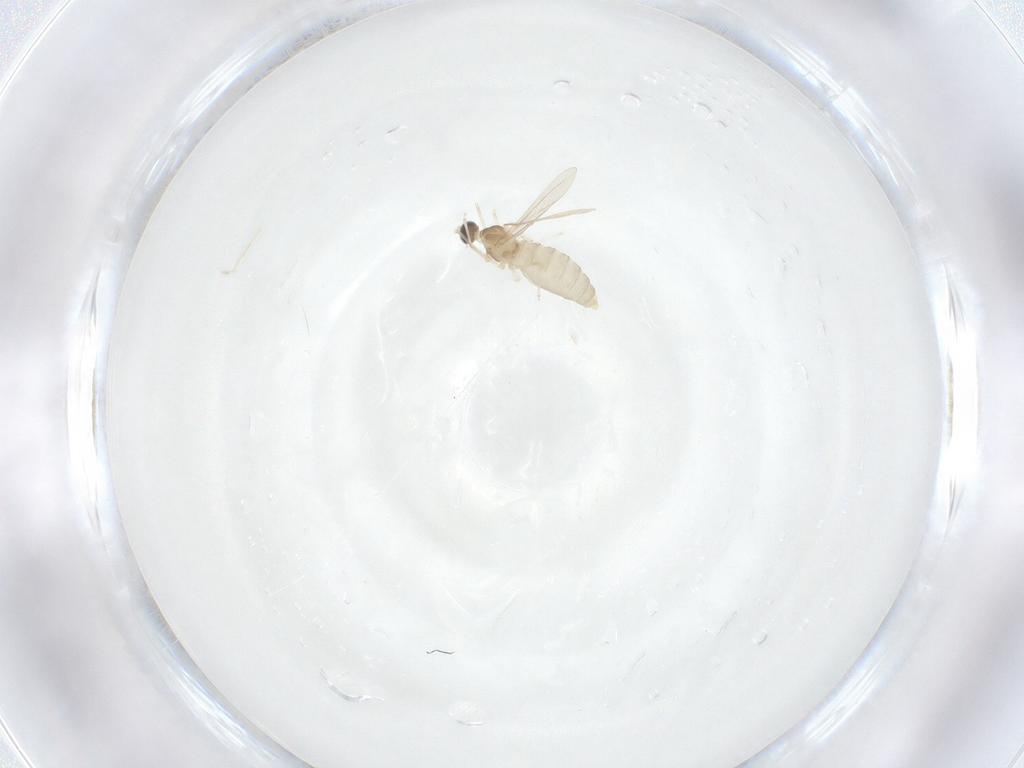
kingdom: Animalia
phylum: Arthropoda
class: Insecta
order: Diptera
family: Cecidomyiidae
